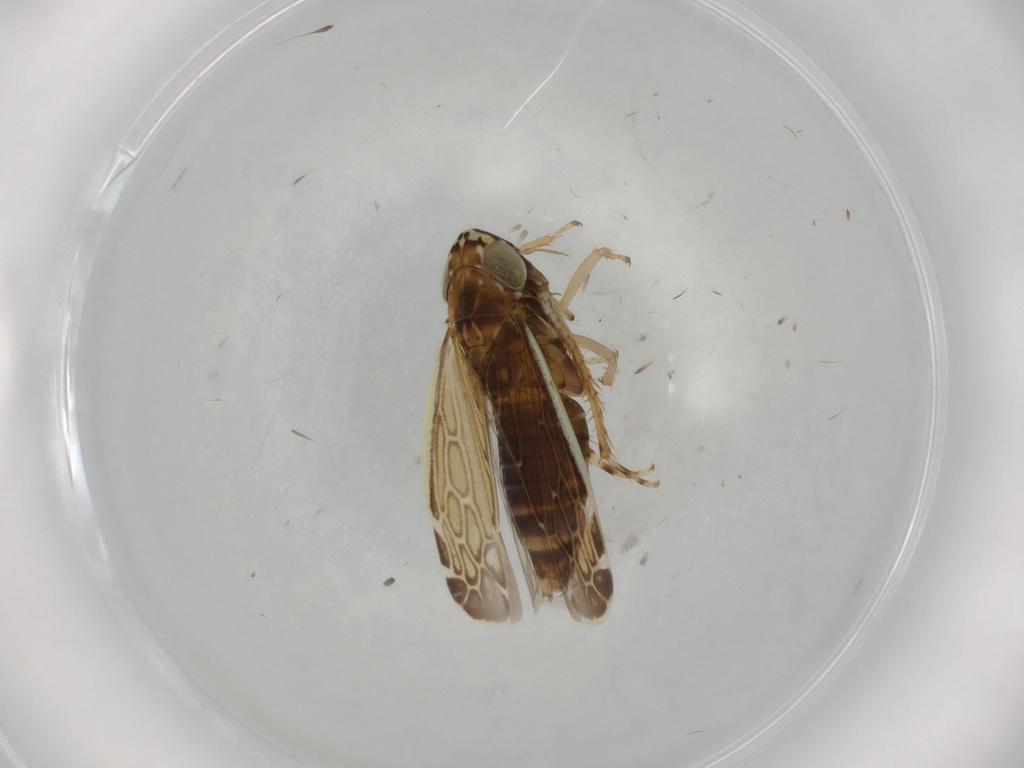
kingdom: Animalia
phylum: Arthropoda
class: Insecta
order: Hemiptera
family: Cicadellidae
